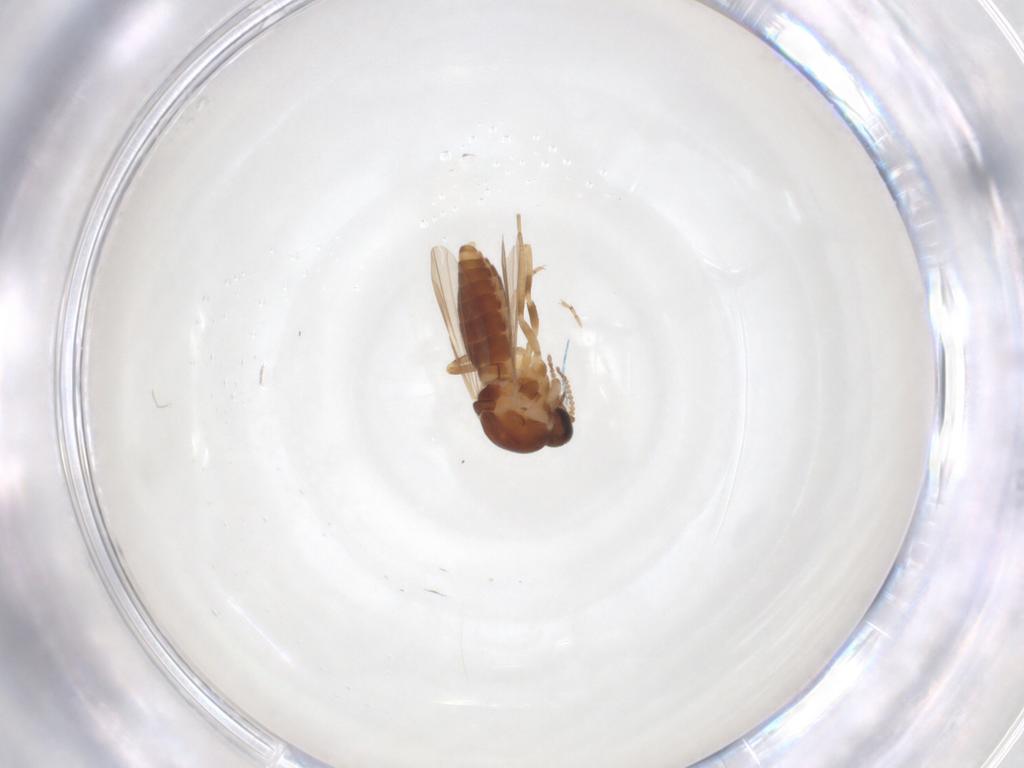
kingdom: Animalia
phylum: Arthropoda
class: Insecta
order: Diptera
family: Ceratopogonidae
